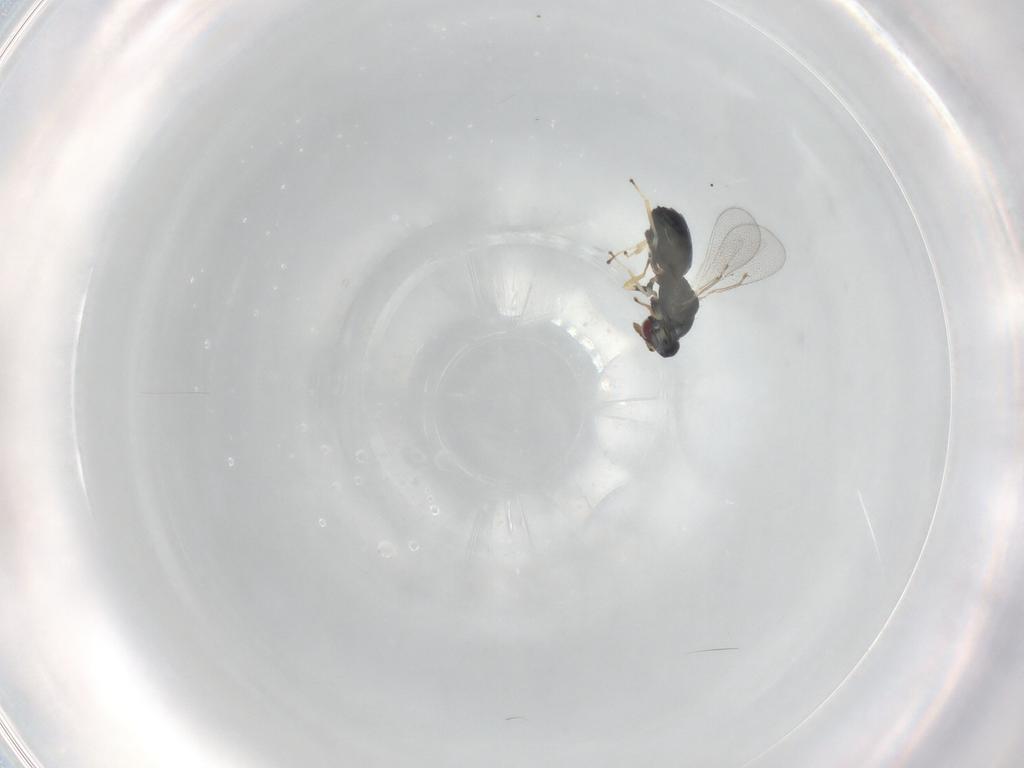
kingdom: Animalia
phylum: Arthropoda
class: Insecta
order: Hymenoptera
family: Eulophidae
